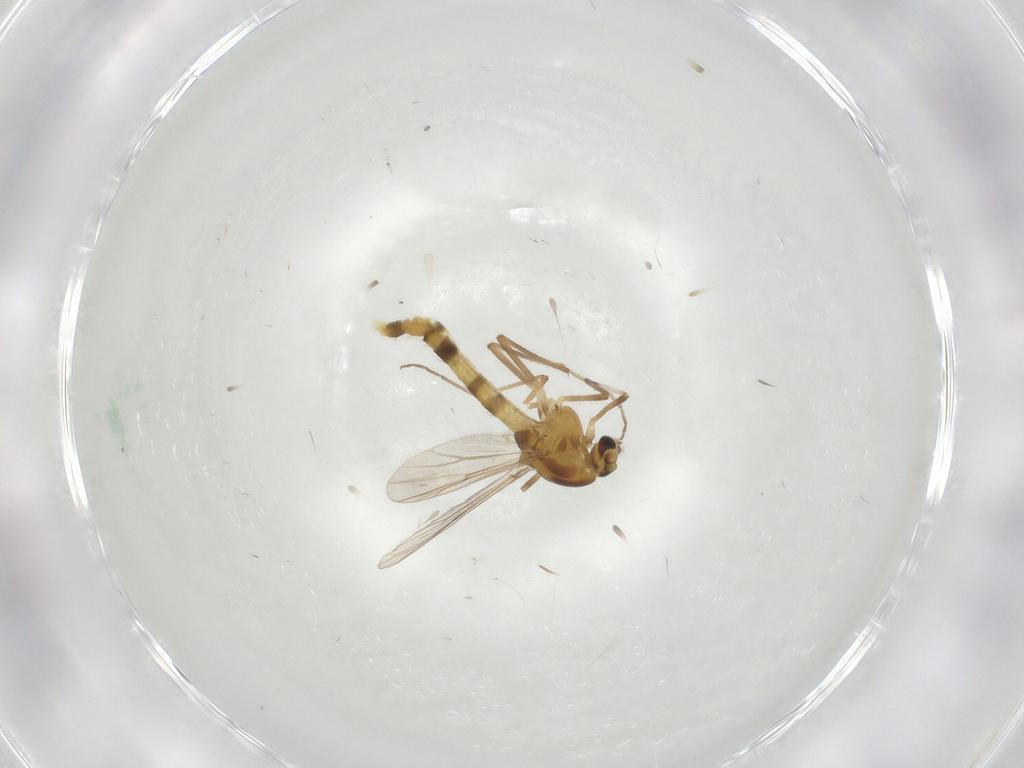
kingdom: Animalia
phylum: Arthropoda
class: Insecta
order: Diptera
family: Chironomidae
